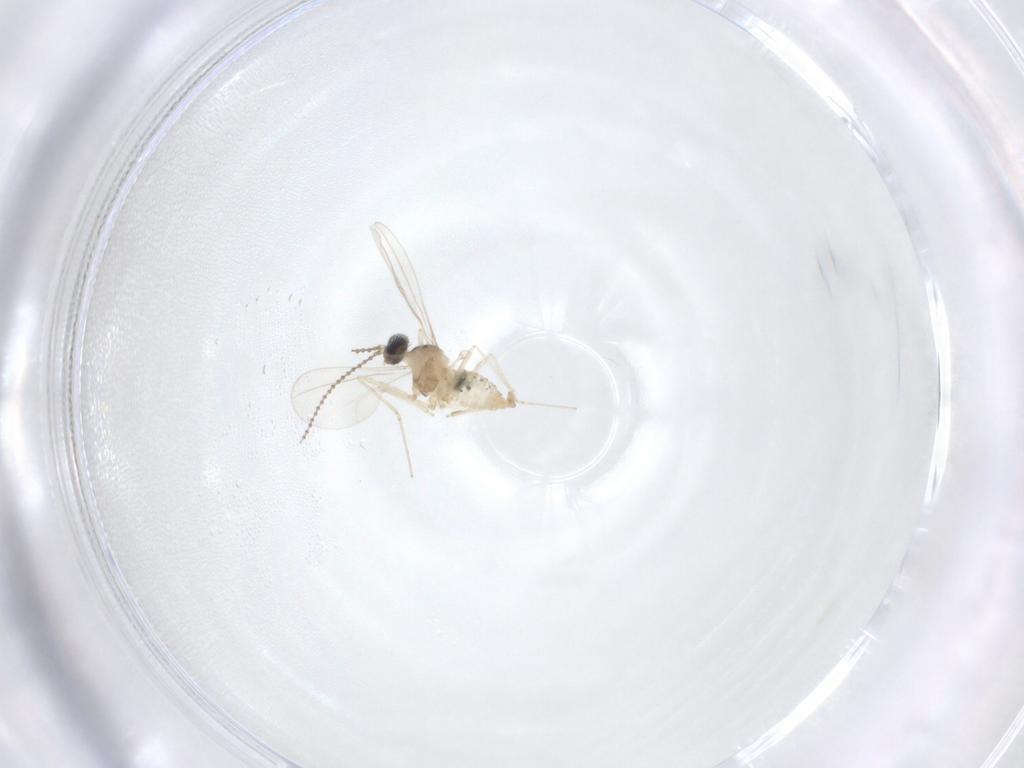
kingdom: Animalia
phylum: Arthropoda
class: Insecta
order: Diptera
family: Cecidomyiidae
